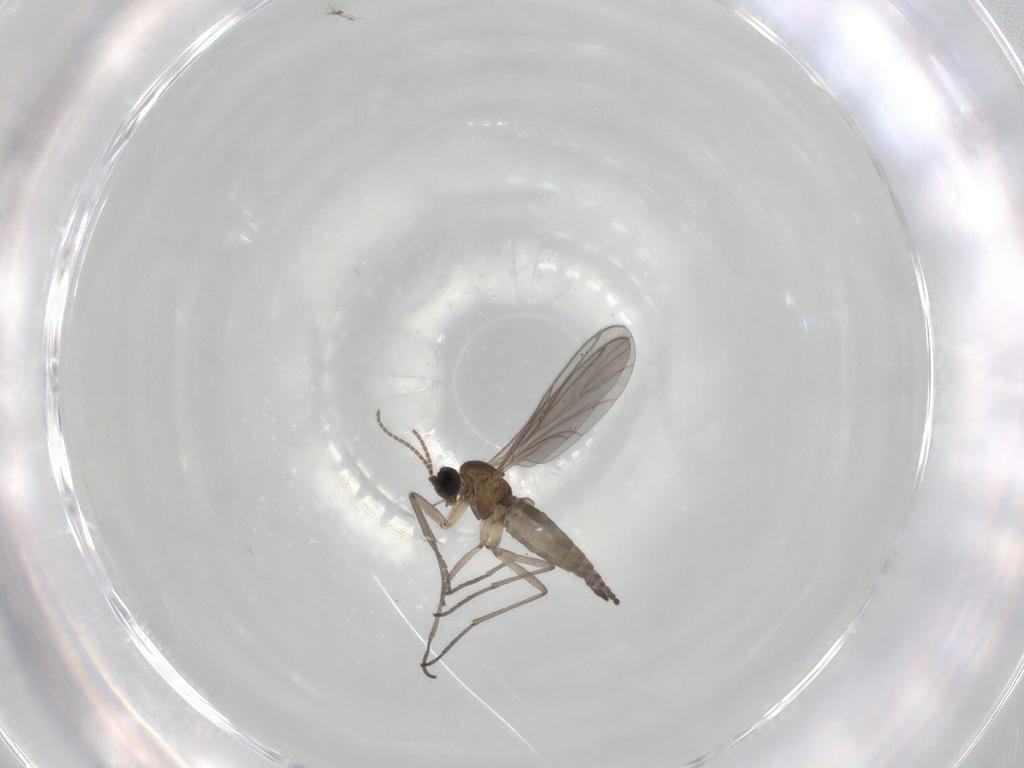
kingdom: Animalia
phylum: Arthropoda
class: Insecta
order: Diptera
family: Sciaridae
